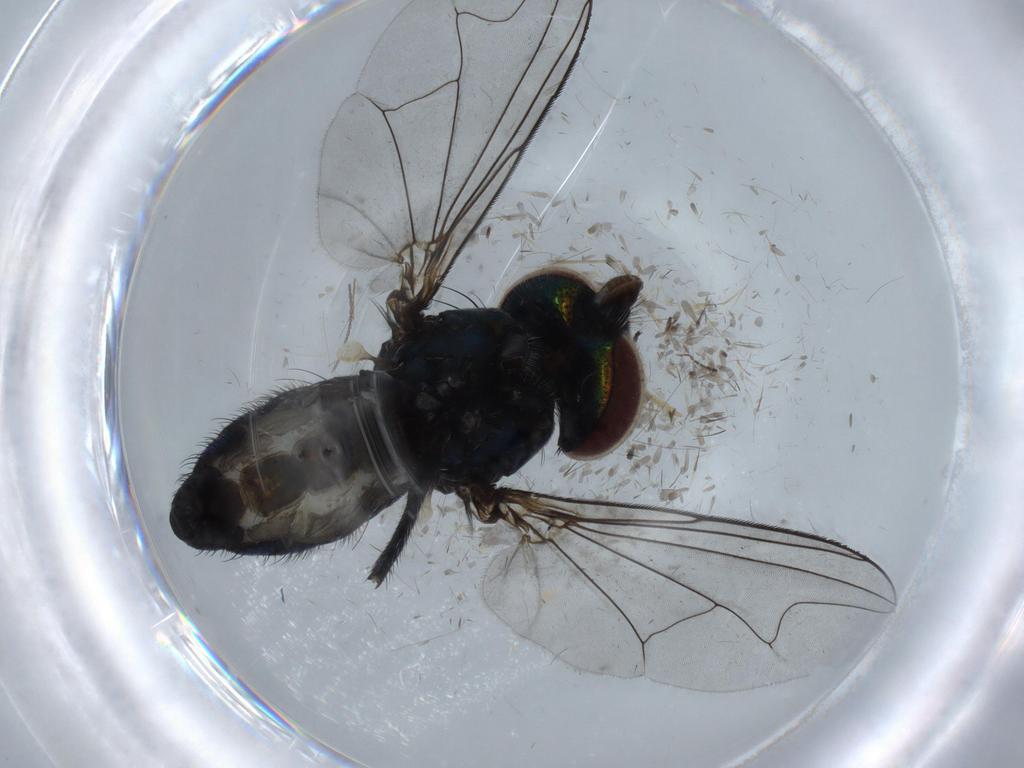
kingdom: Animalia
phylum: Arthropoda
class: Insecta
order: Diptera
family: Dolichopodidae
